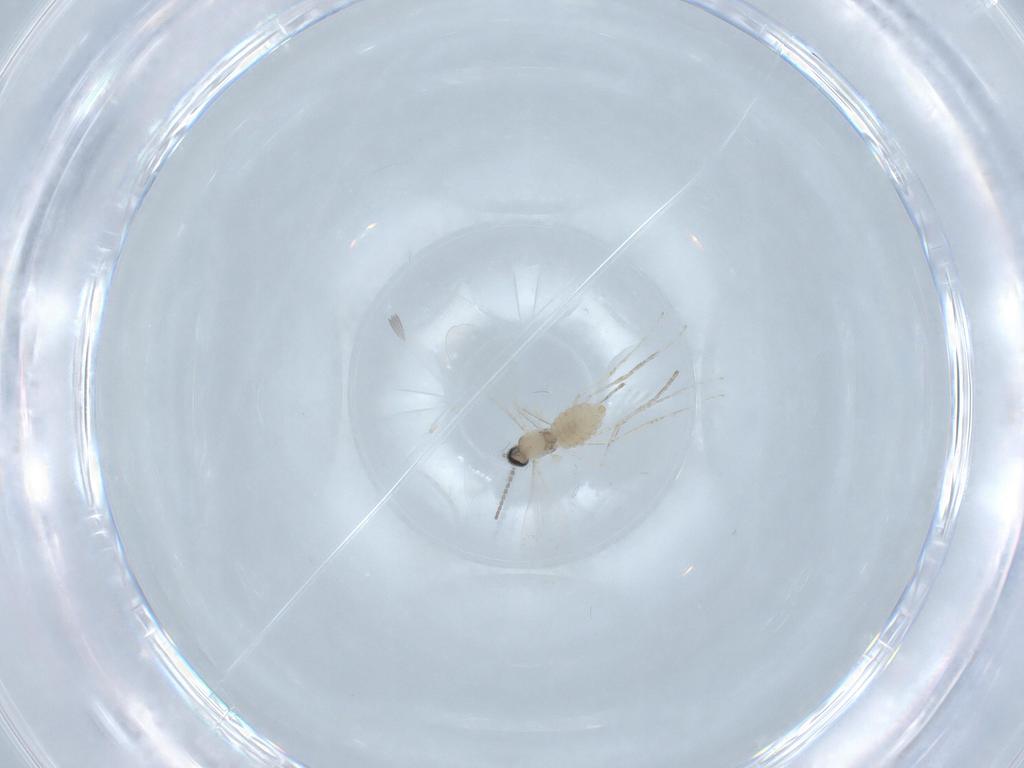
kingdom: Animalia
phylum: Arthropoda
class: Insecta
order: Diptera
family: Cecidomyiidae
